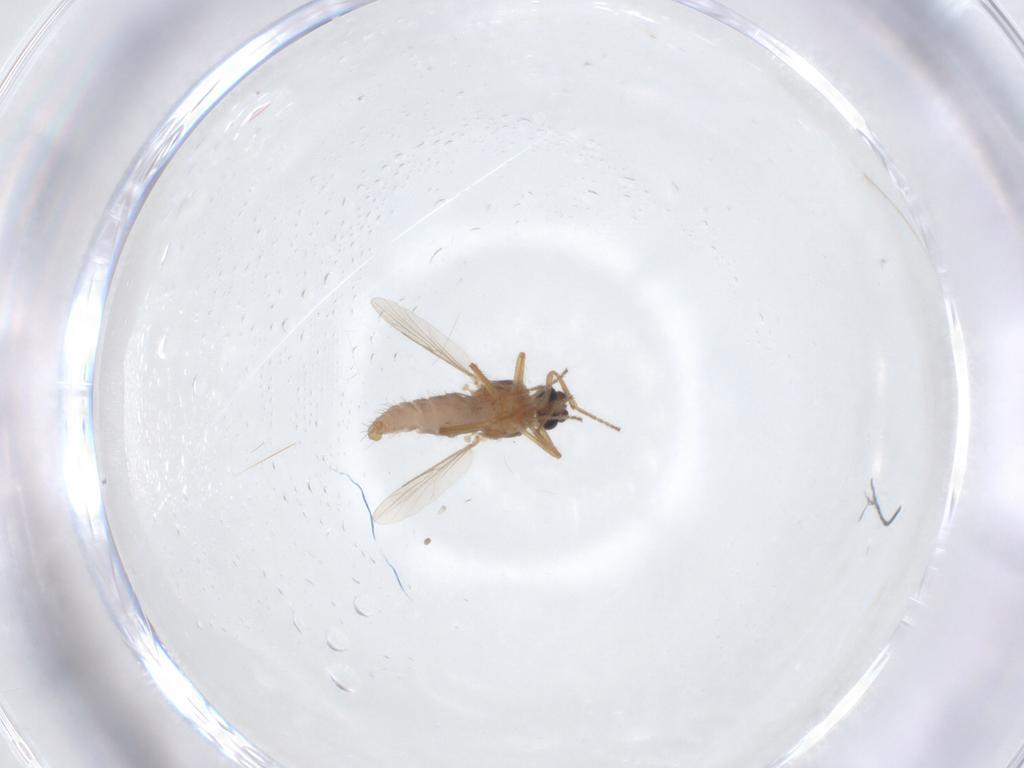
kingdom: Animalia
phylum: Arthropoda
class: Insecta
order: Diptera
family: Ceratopogonidae
